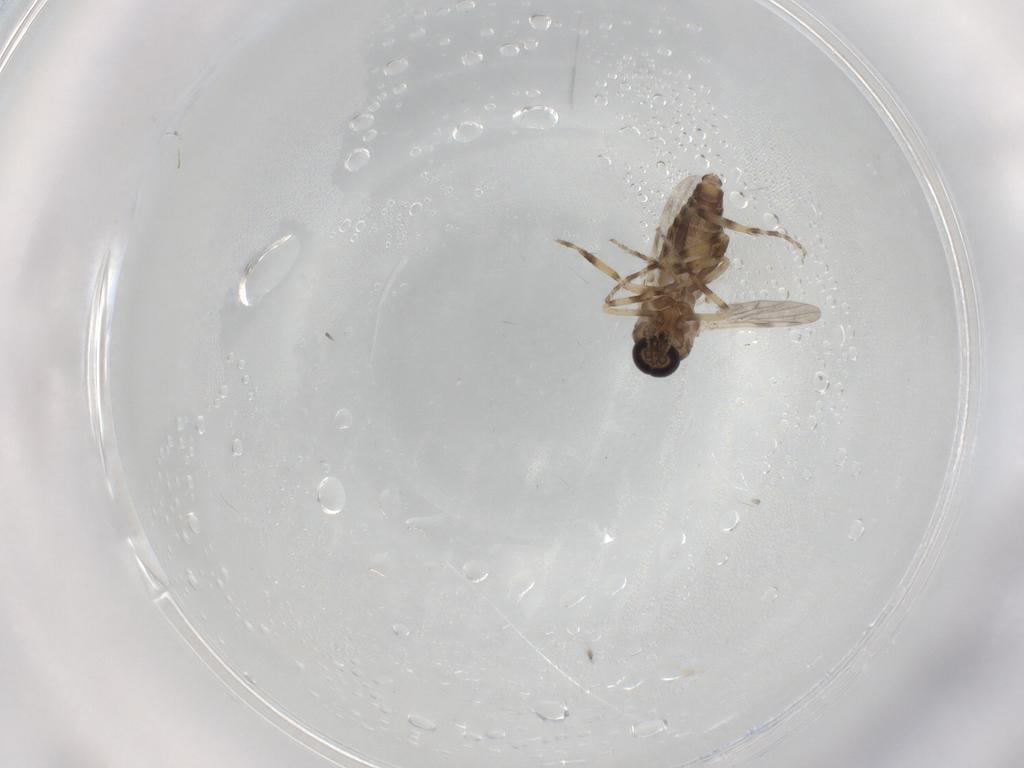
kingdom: Animalia
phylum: Arthropoda
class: Insecta
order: Diptera
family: Ceratopogonidae
